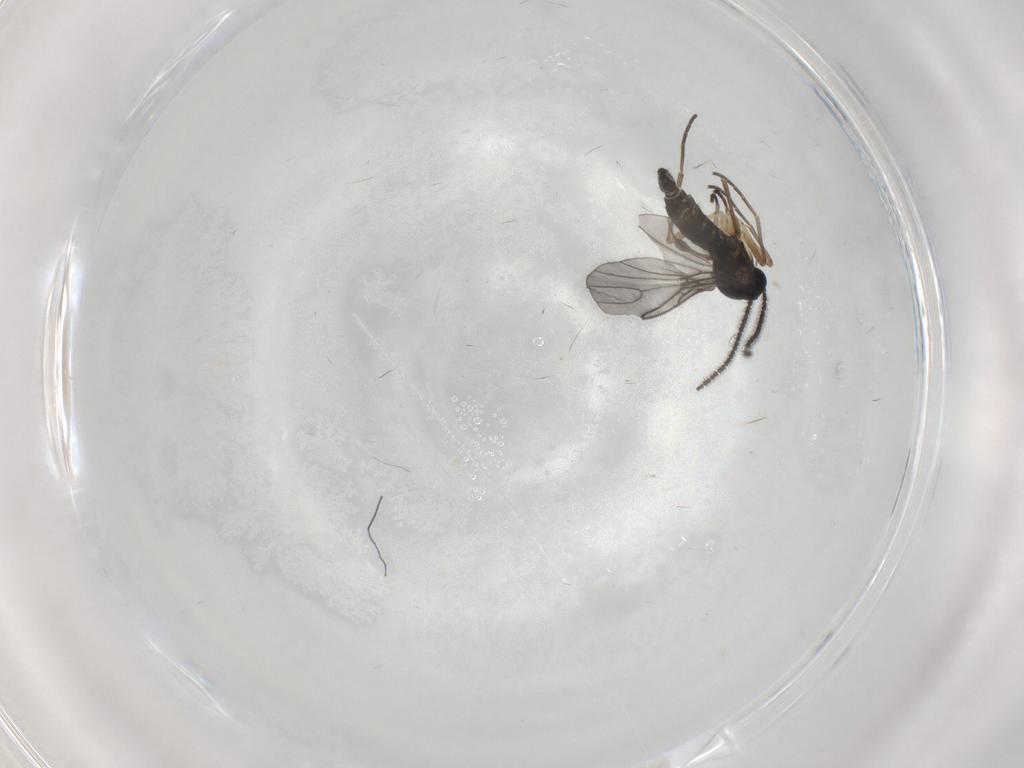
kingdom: Animalia
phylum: Arthropoda
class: Insecta
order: Diptera
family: Sciaridae
